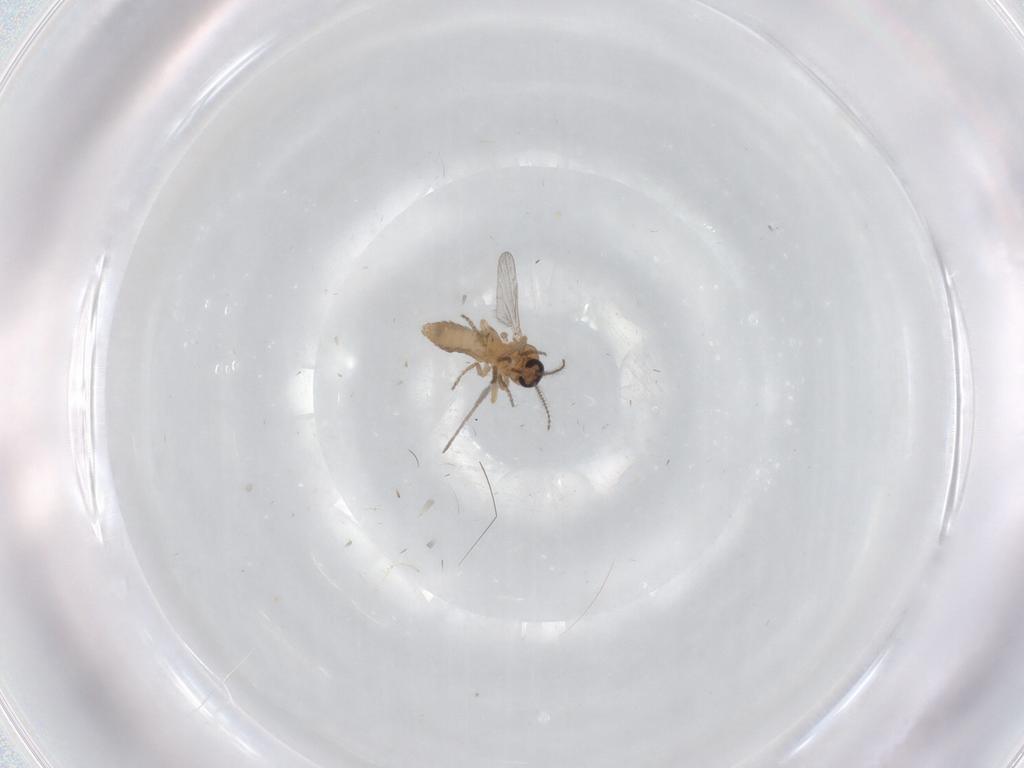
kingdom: Animalia
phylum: Arthropoda
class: Insecta
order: Diptera
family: Ceratopogonidae
